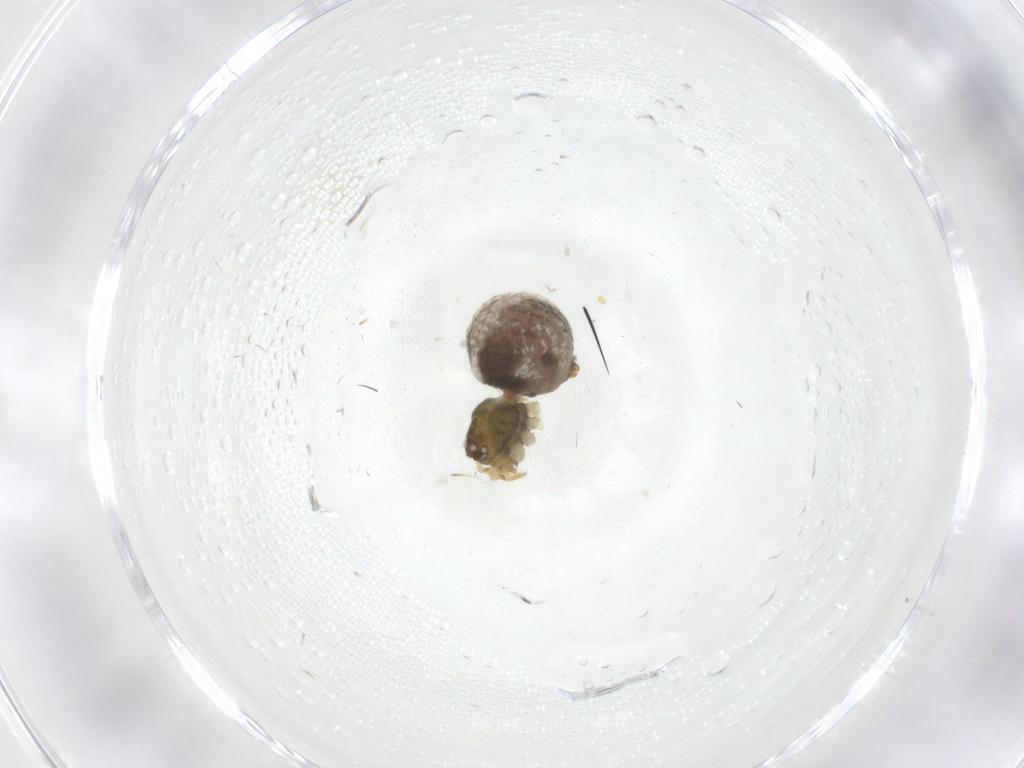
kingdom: Animalia
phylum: Arthropoda
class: Arachnida
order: Araneae
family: Theridiidae
